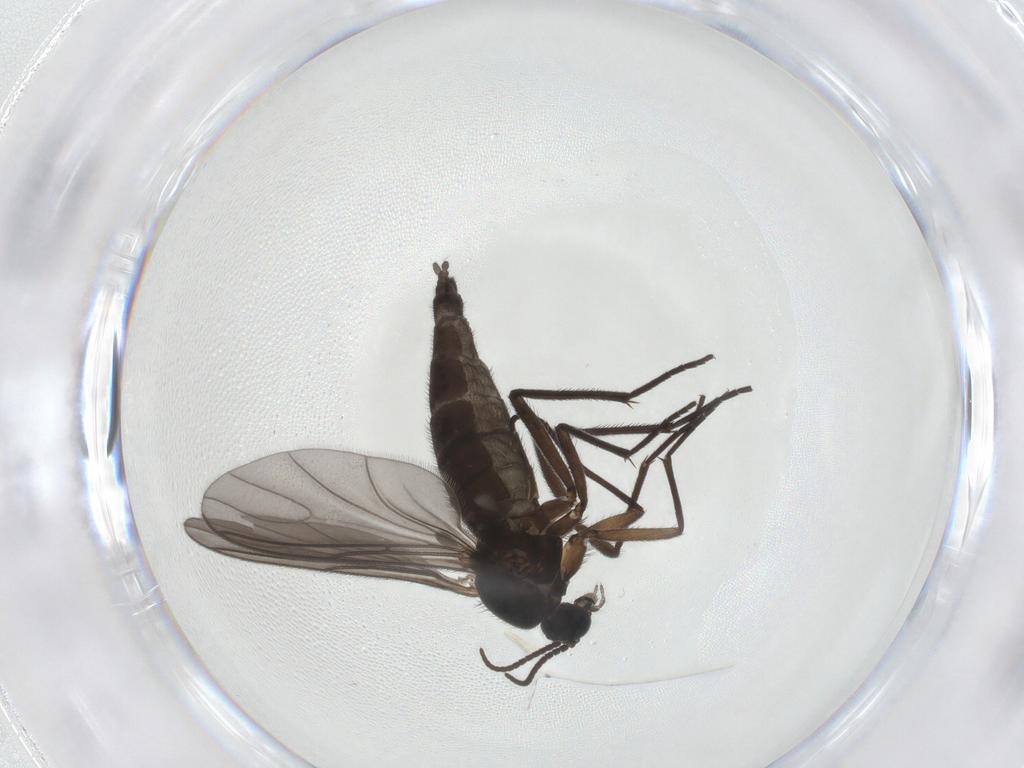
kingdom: Animalia
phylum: Arthropoda
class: Insecta
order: Diptera
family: Sciaridae
